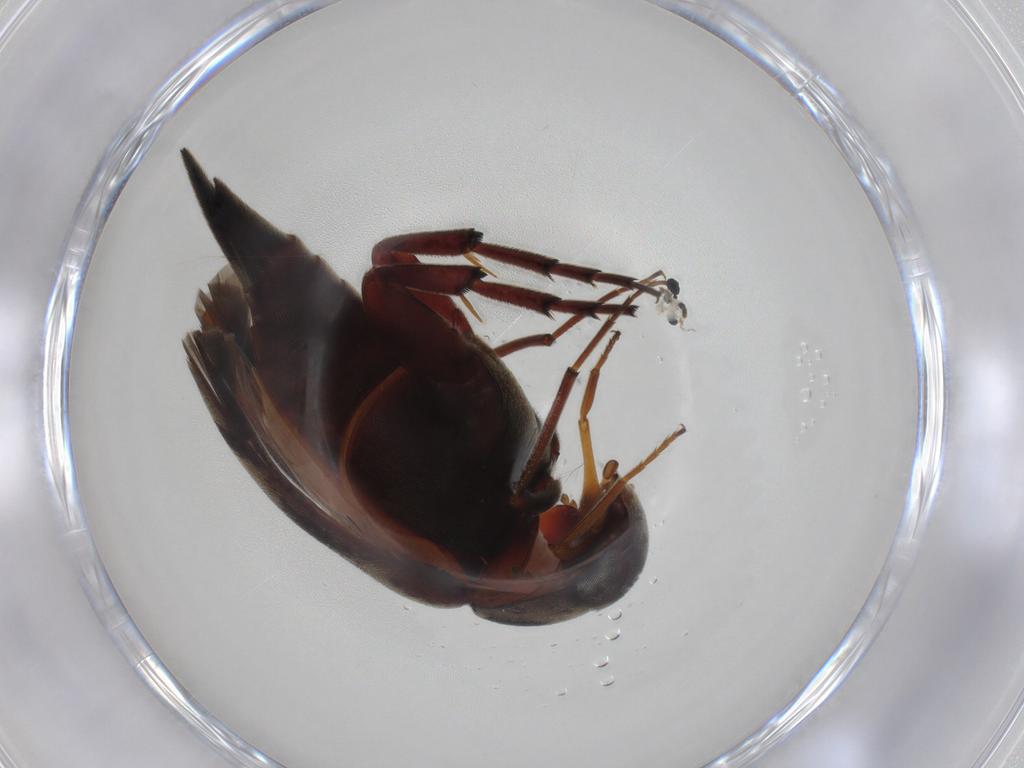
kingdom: Animalia
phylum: Arthropoda
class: Insecta
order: Coleoptera
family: Mordellidae
